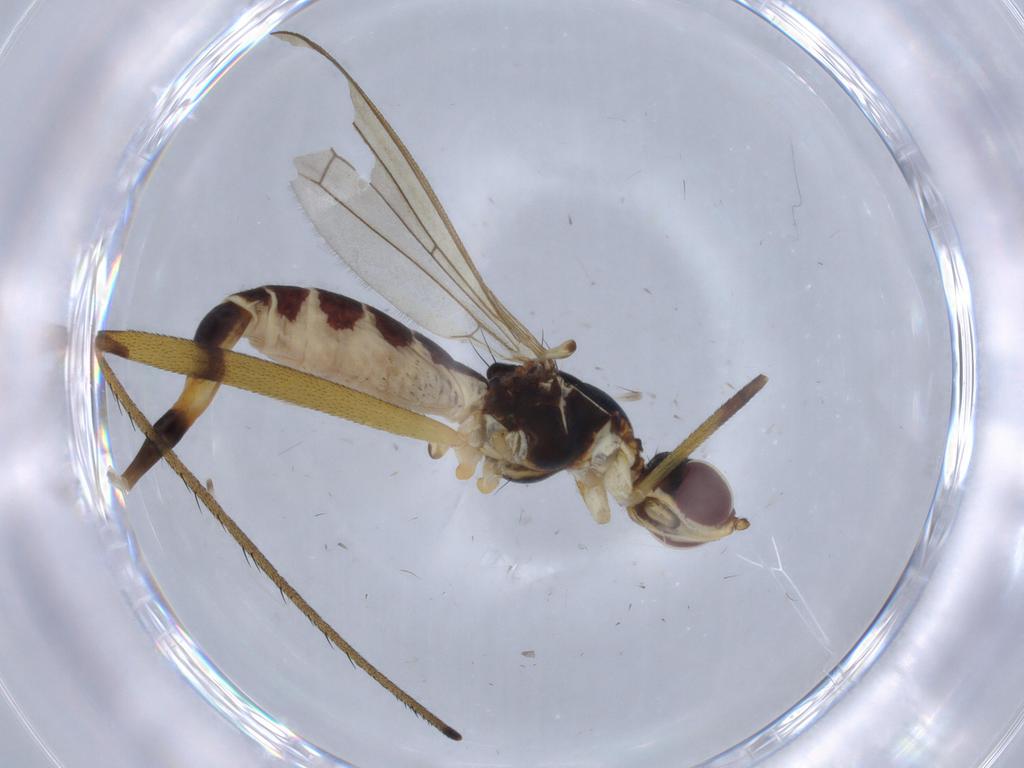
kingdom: Animalia
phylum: Arthropoda
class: Insecta
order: Diptera
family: Micropezidae
